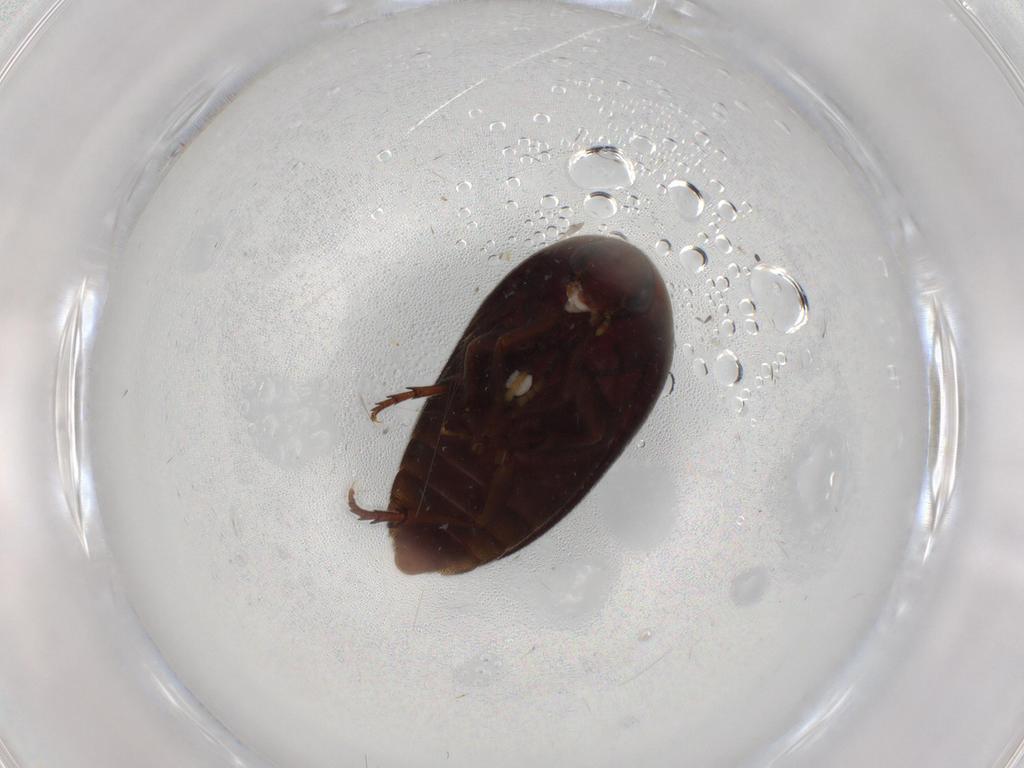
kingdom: Animalia
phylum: Arthropoda
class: Insecta
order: Coleoptera
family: Eucinetidae
